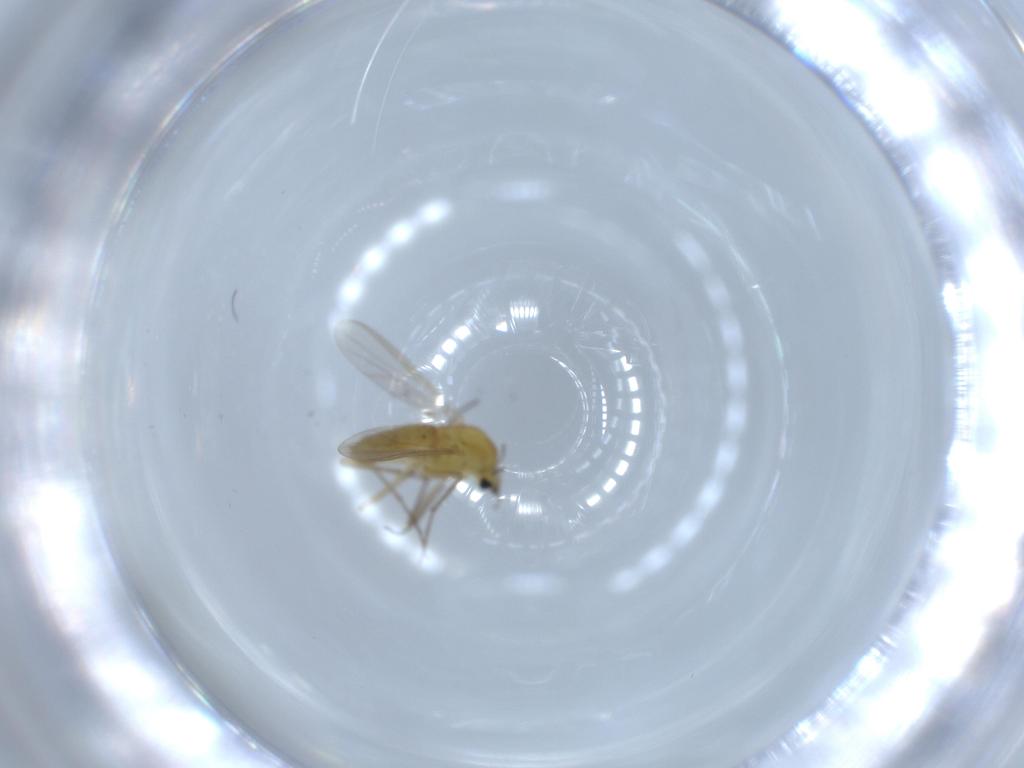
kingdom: Animalia
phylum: Arthropoda
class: Insecta
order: Diptera
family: Chironomidae
